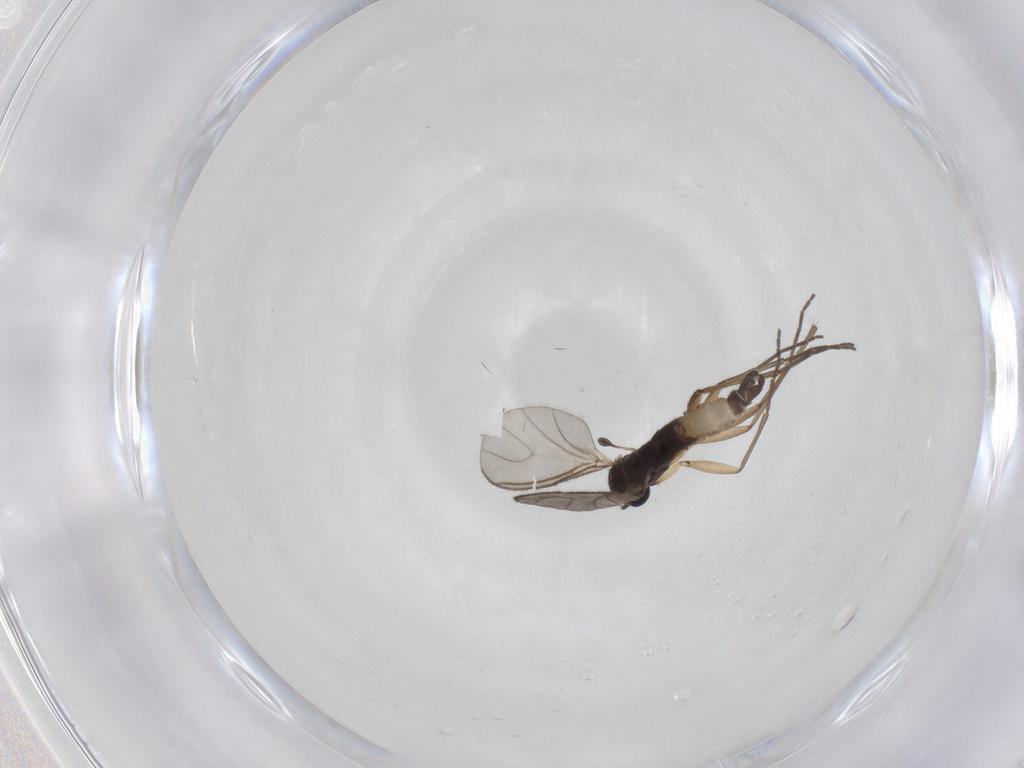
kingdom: Animalia
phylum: Arthropoda
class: Insecta
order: Diptera
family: Sciaridae
